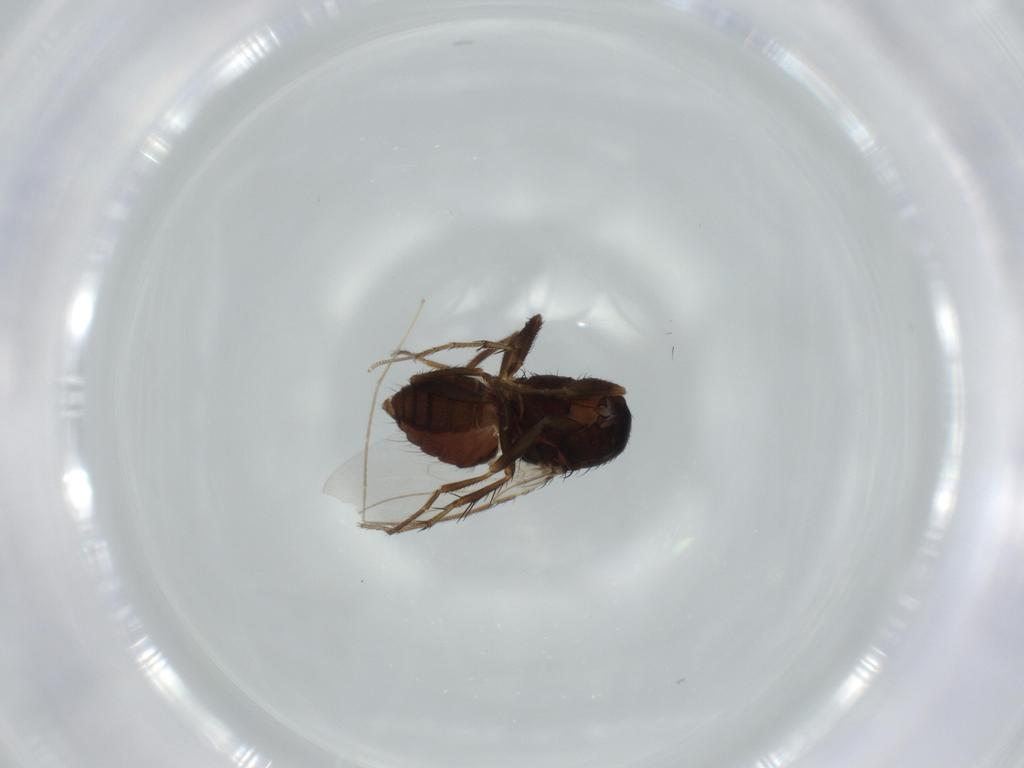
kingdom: Animalia
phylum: Arthropoda
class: Insecta
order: Diptera
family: Sphaeroceridae
